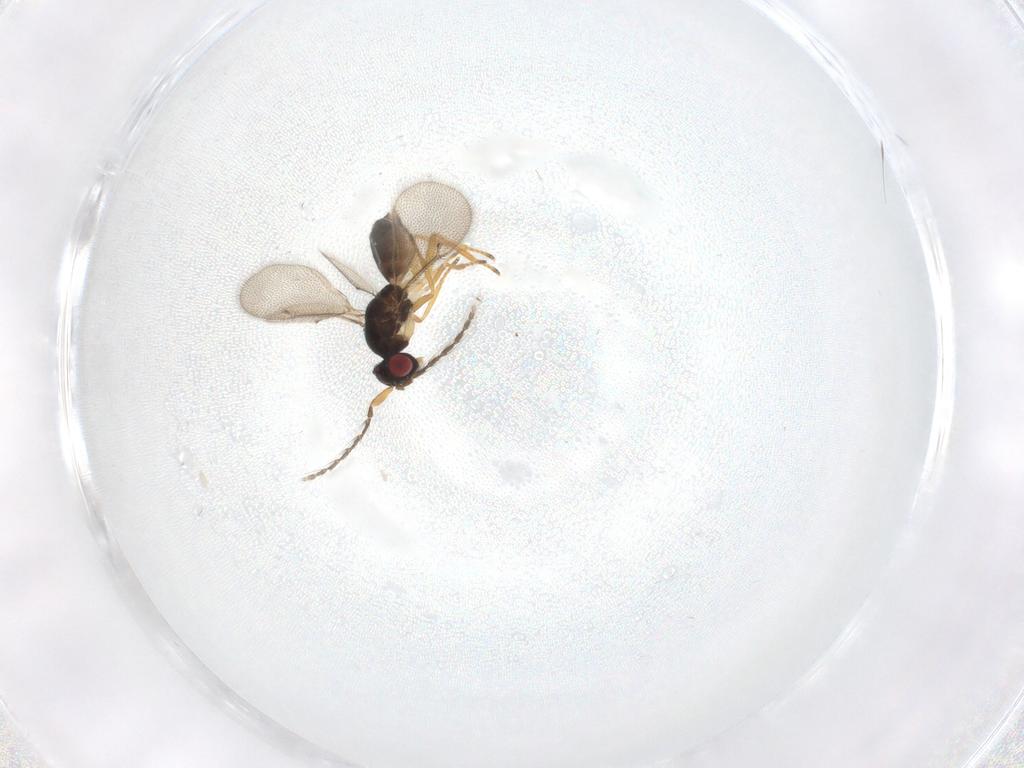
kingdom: Animalia
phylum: Arthropoda
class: Insecta
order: Hymenoptera
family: Eulophidae
